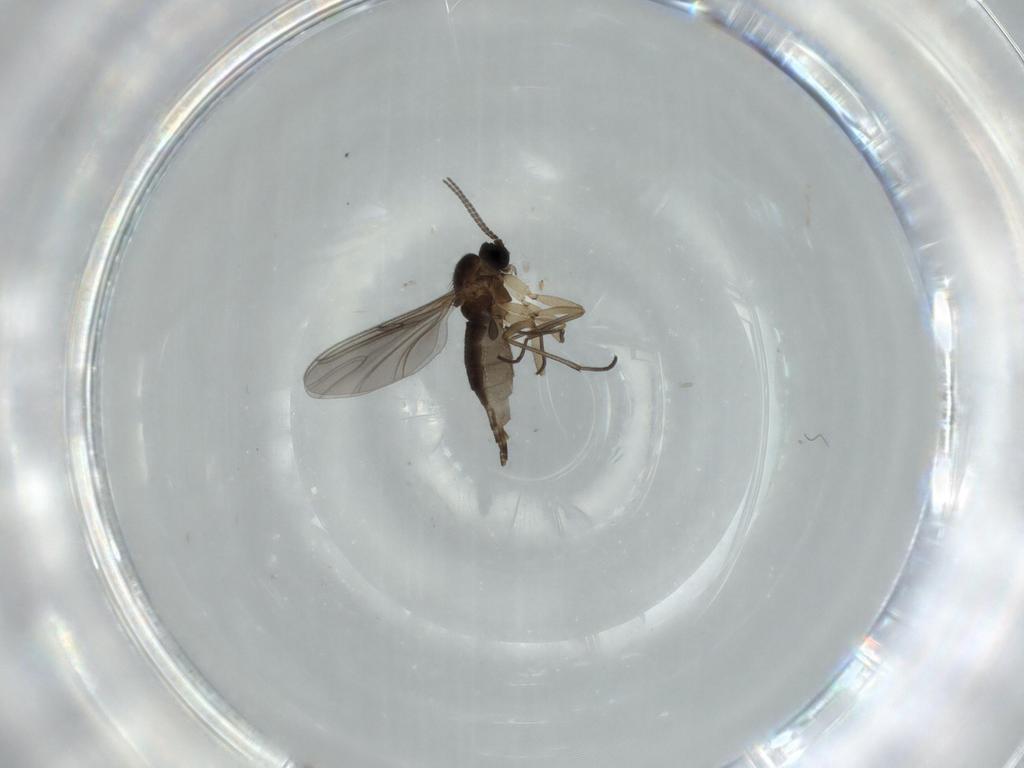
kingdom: Animalia
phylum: Arthropoda
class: Insecta
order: Diptera
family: Sciaridae
